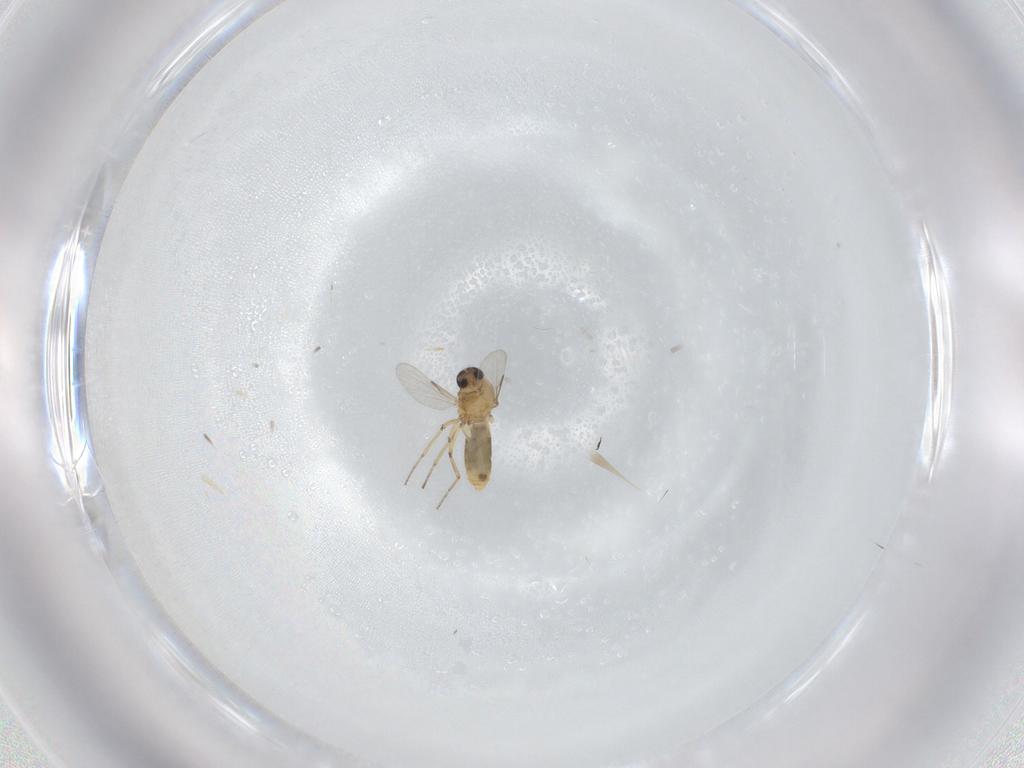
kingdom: Animalia
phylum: Arthropoda
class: Insecta
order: Diptera
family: Ceratopogonidae
